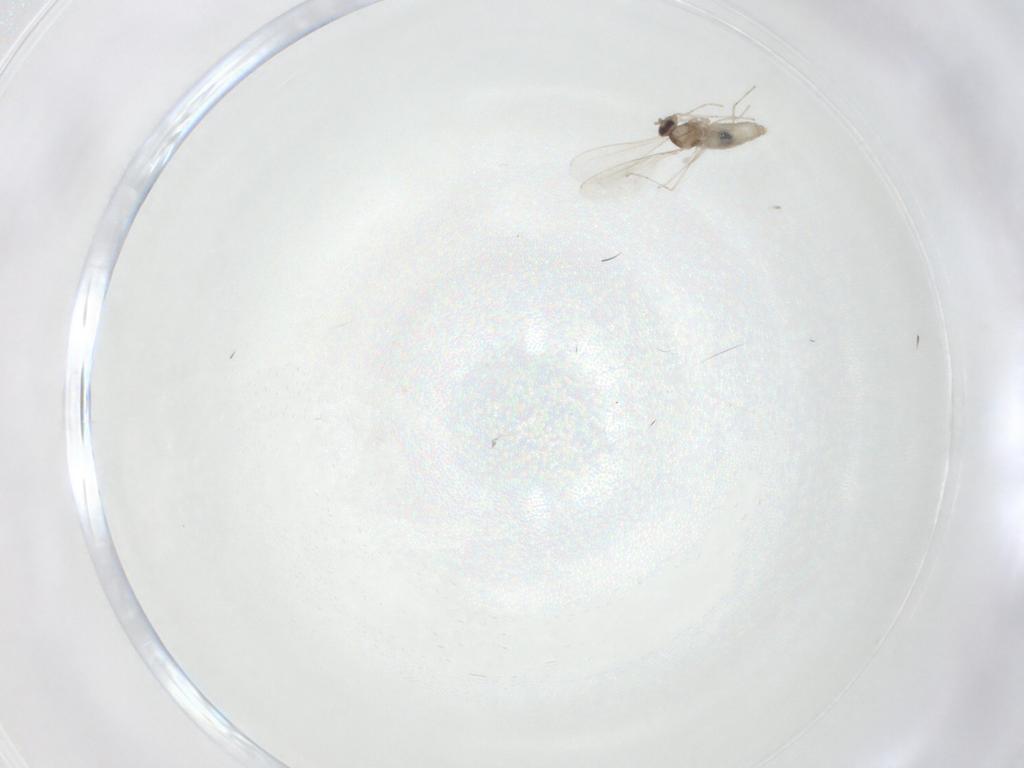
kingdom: Animalia
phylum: Arthropoda
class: Insecta
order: Diptera
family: Cecidomyiidae
